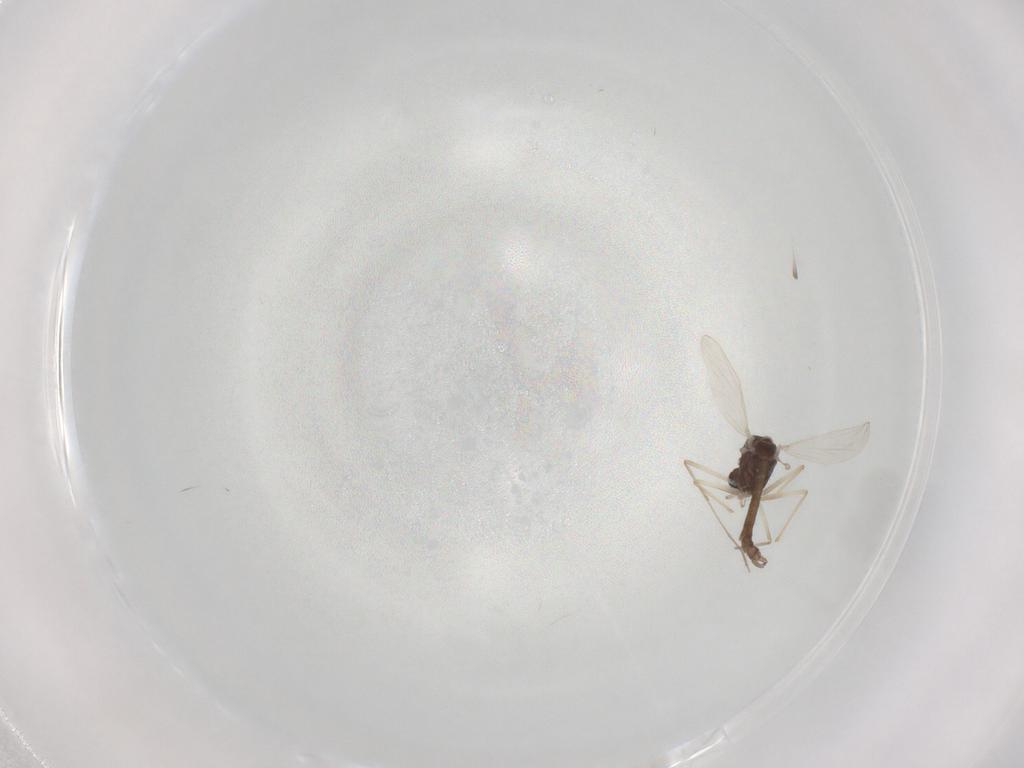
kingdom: Animalia
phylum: Arthropoda
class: Insecta
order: Diptera
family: Chironomidae
